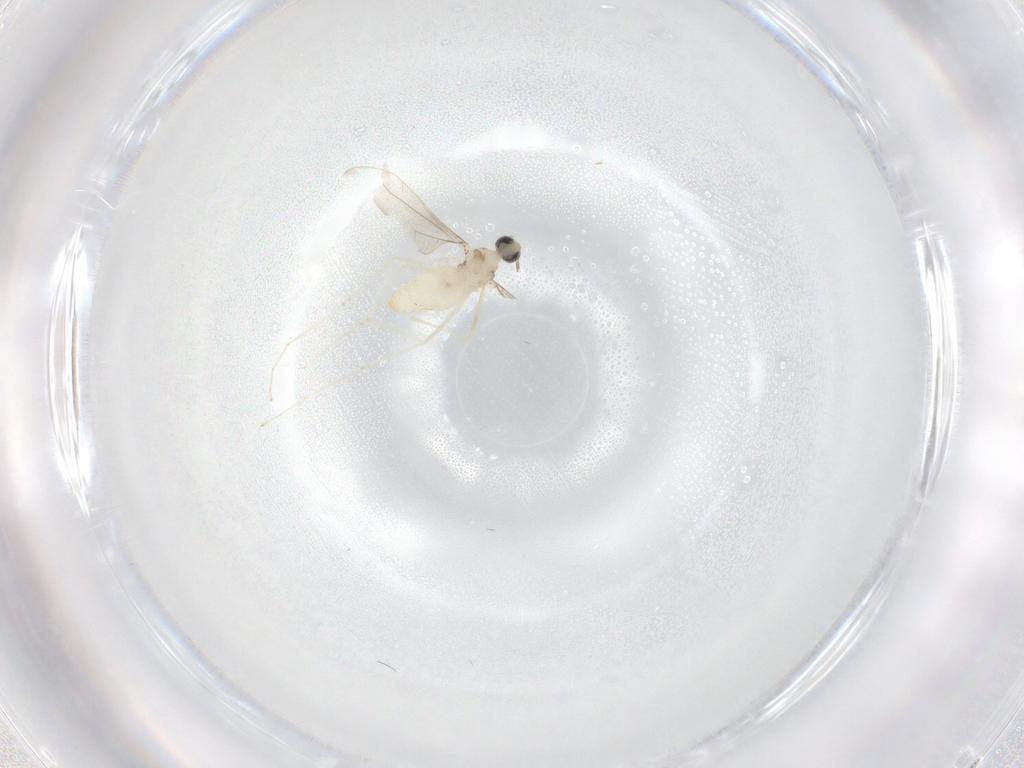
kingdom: Animalia
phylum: Arthropoda
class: Insecta
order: Diptera
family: Cecidomyiidae
